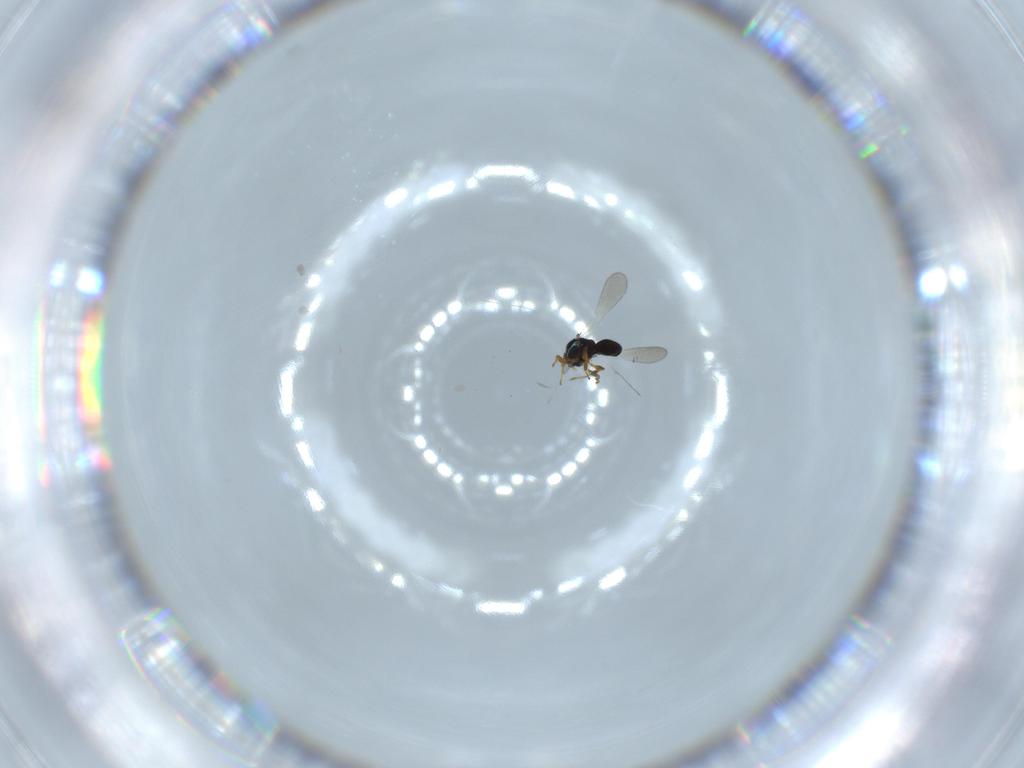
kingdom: Animalia
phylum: Arthropoda
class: Insecta
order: Hymenoptera
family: Platygastridae
